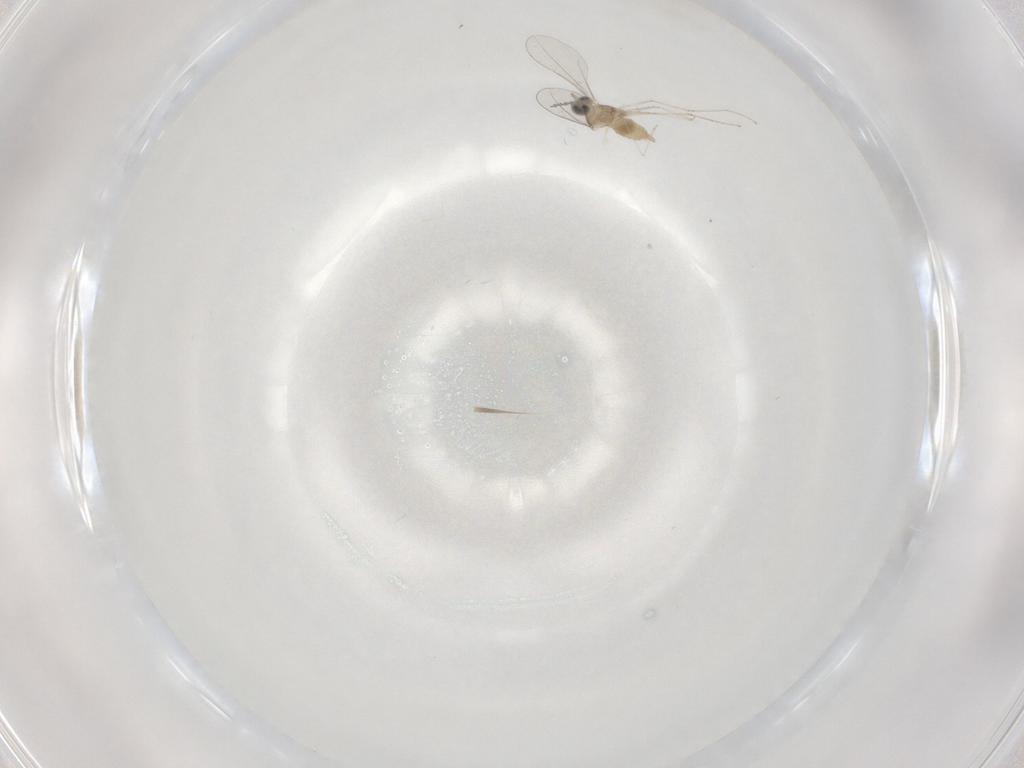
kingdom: Animalia
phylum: Arthropoda
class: Insecta
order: Diptera
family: Cecidomyiidae
